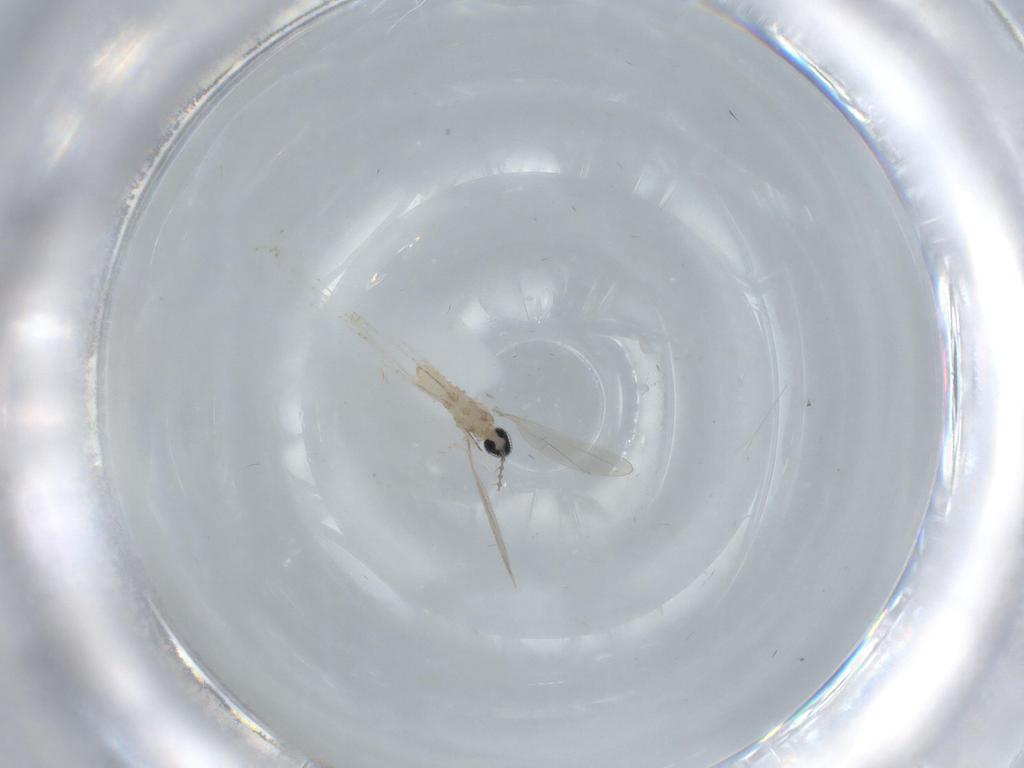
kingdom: Animalia
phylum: Arthropoda
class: Insecta
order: Diptera
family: Cecidomyiidae
